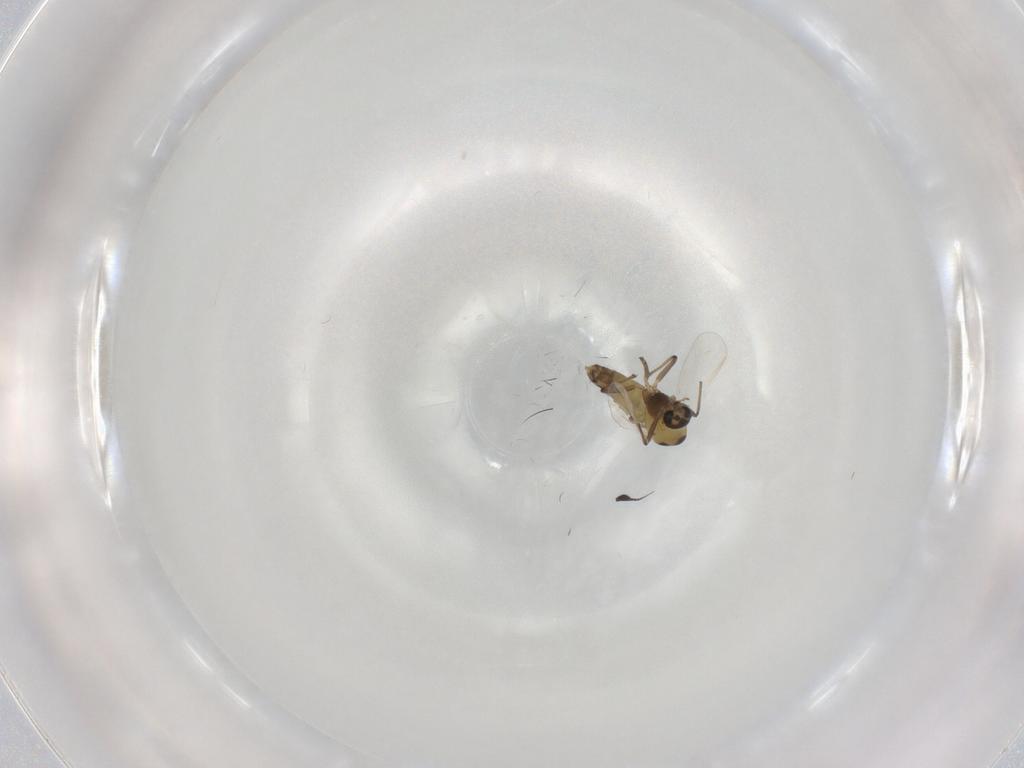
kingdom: Animalia
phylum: Arthropoda
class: Insecta
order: Diptera
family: Chironomidae
